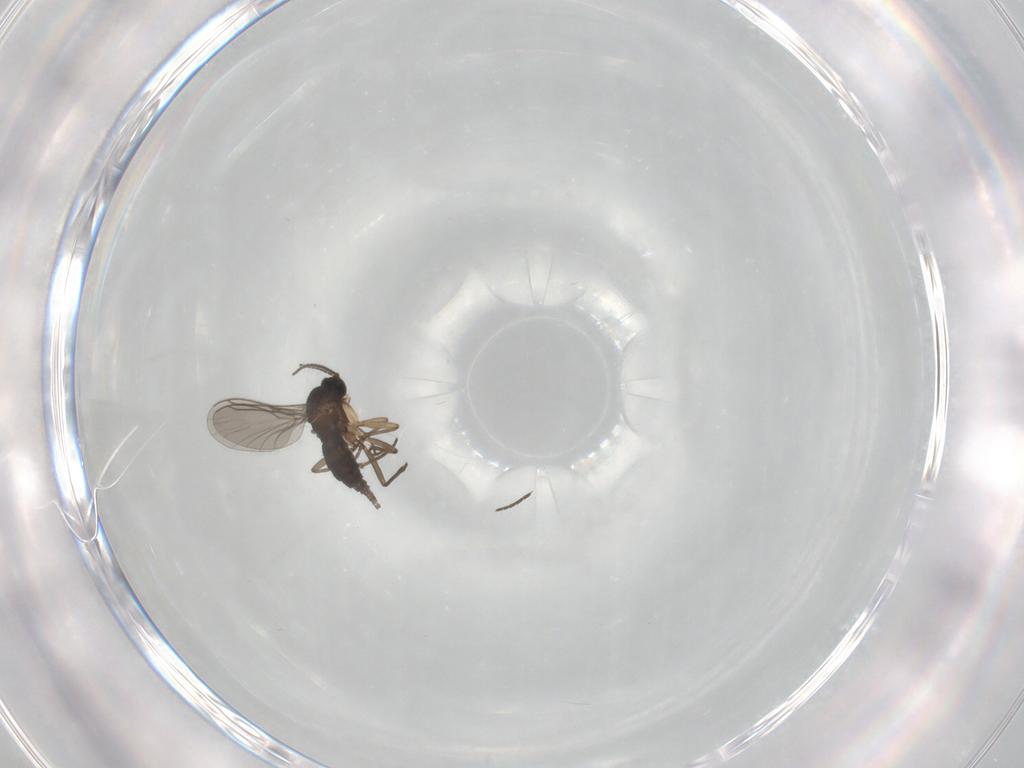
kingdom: Animalia
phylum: Arthropoda
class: Insecta
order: Diptera
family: Sciaridae
